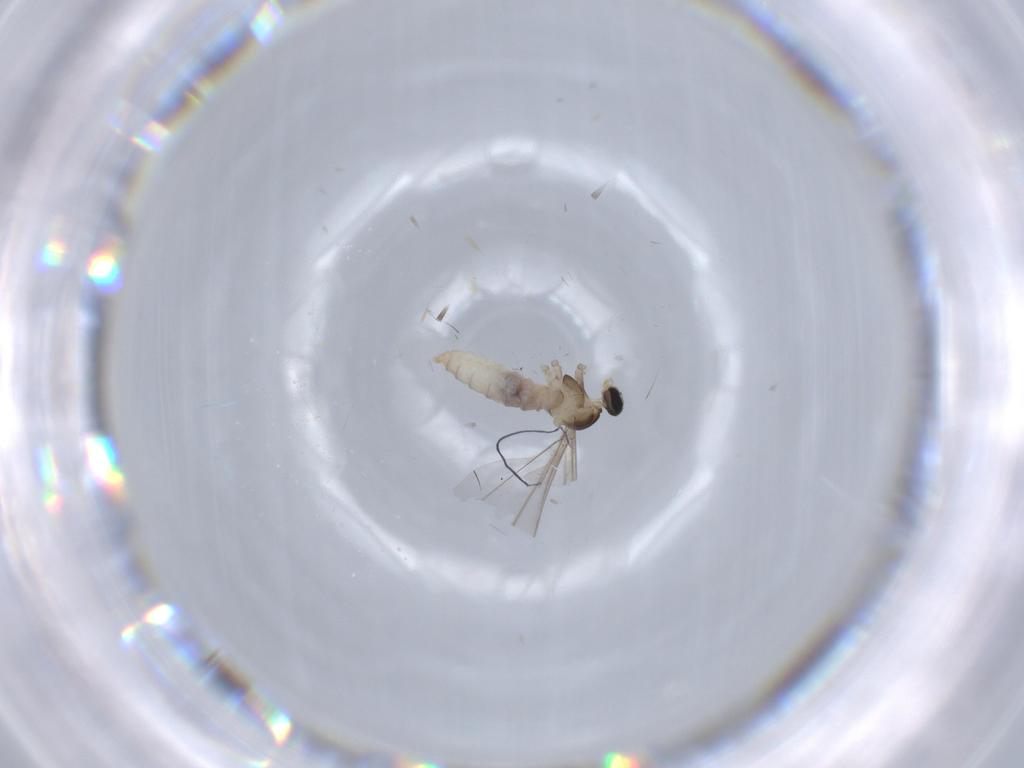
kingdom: Animalia
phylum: Arthropoda
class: Insecta
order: Diptera
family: Cecidomyiidae
